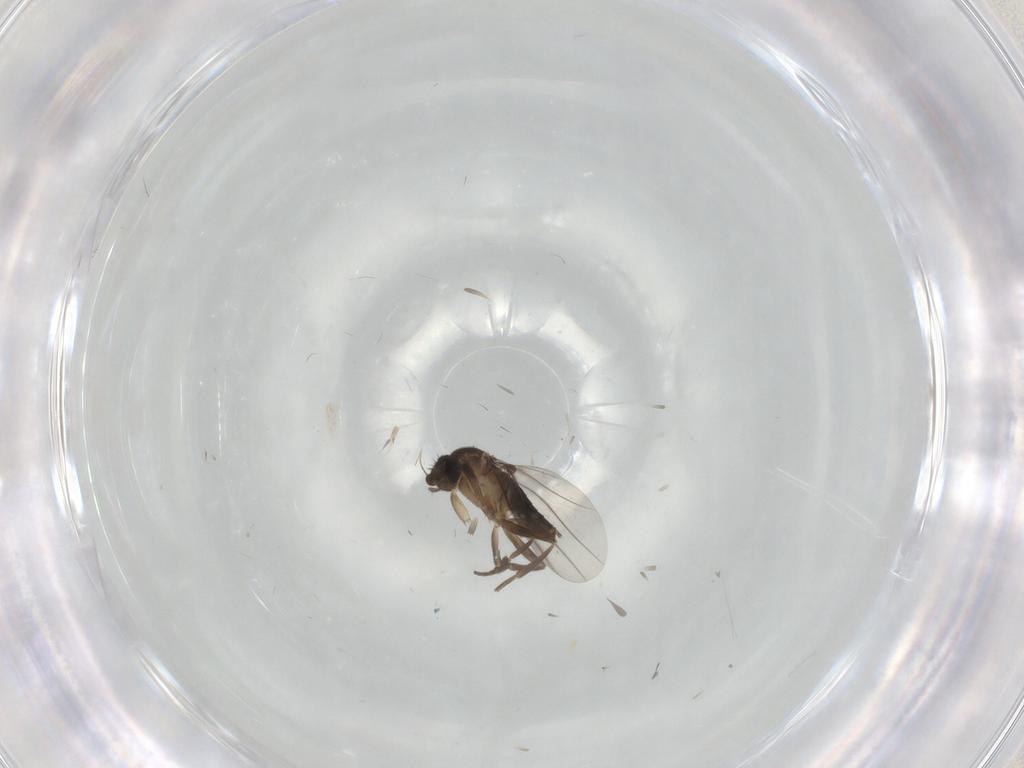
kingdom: Animalia
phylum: Arthropoda
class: Insecta
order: Diptera
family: Phoridae
